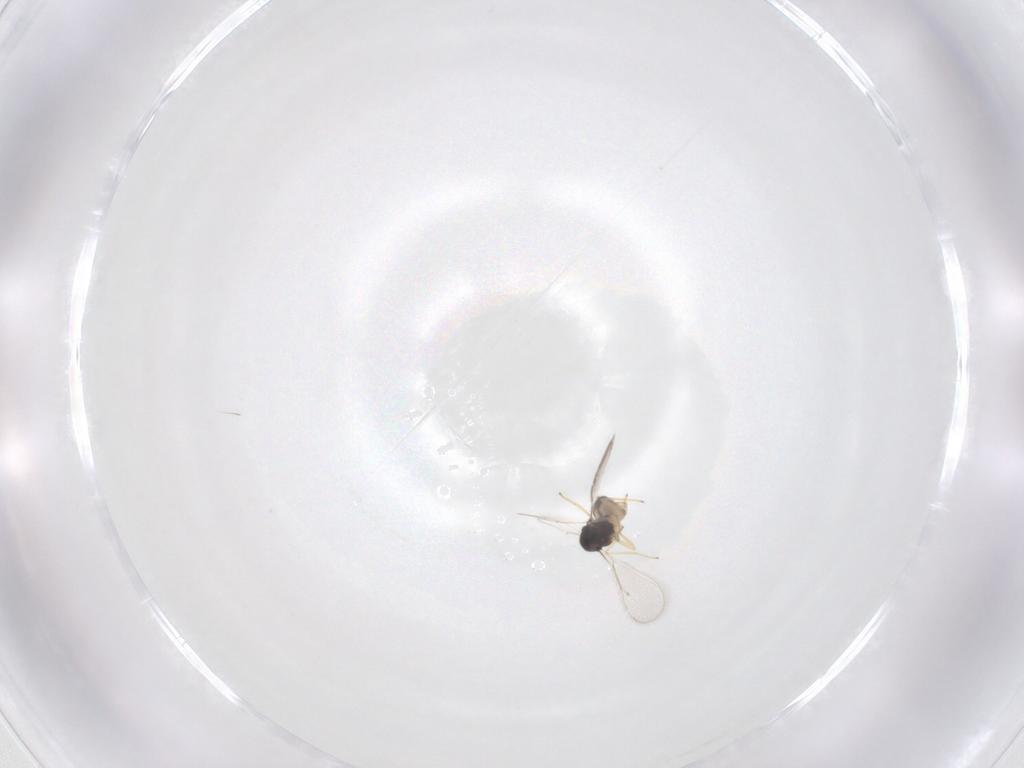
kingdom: Animalia
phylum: Arthropoda
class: Insecta
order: Hymenoptera
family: Eulophidae
